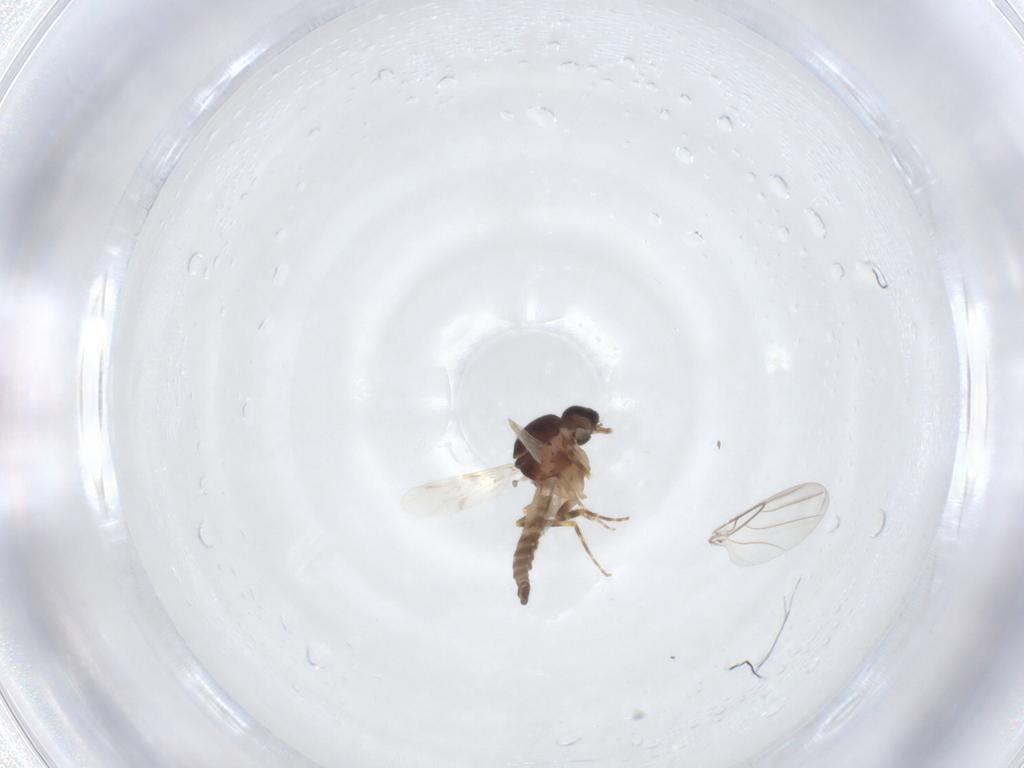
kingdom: Animalia
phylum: Arthropoda
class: Insecta
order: Diptera
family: Ceratopogonidae
